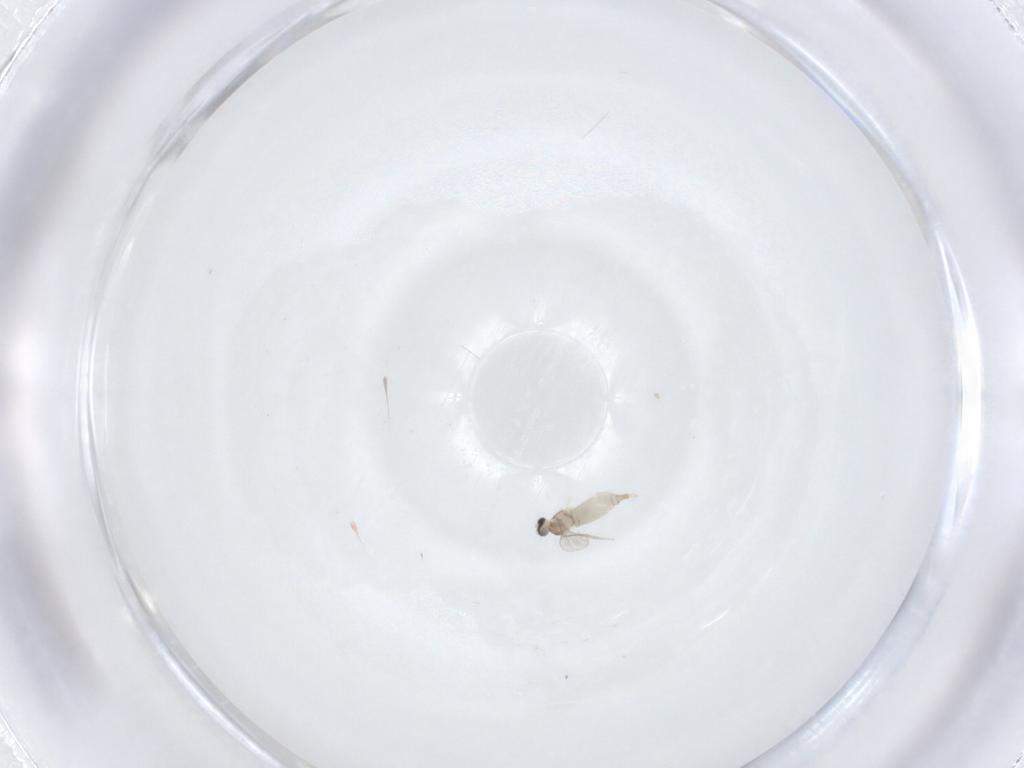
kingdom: Animalia
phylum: Arthropoda
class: Insecta
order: Diptera
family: Drosophilidae
